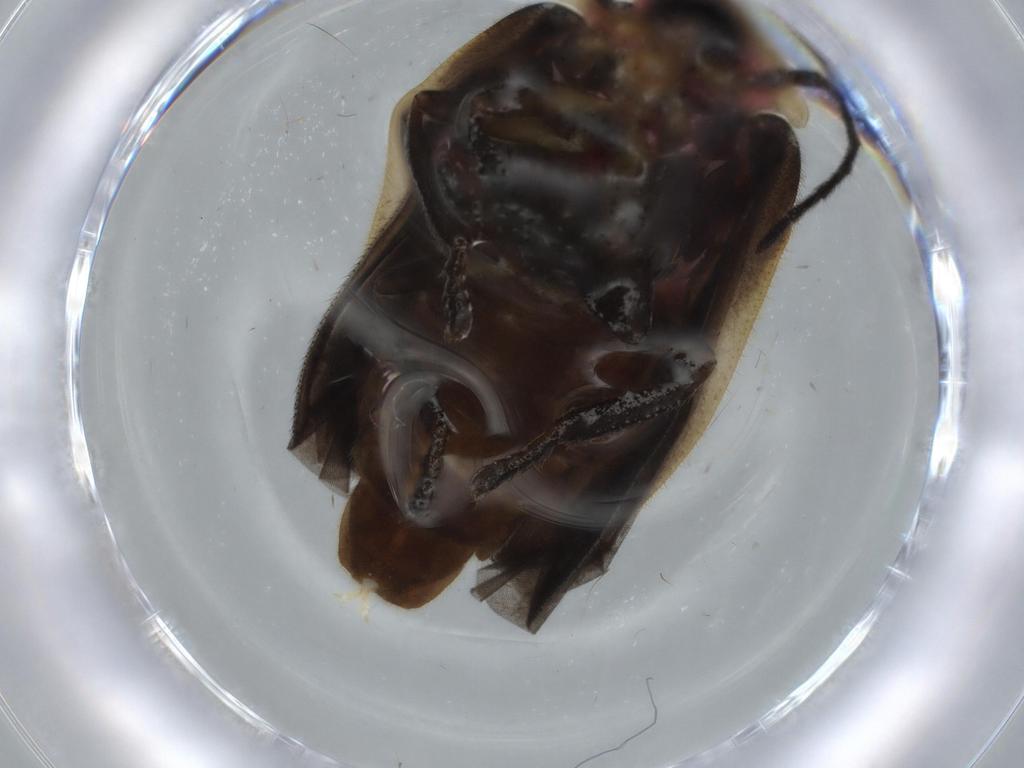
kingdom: Animalia
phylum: Arthropoda
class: Insecta
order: Coleoptera
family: Lampyridae
